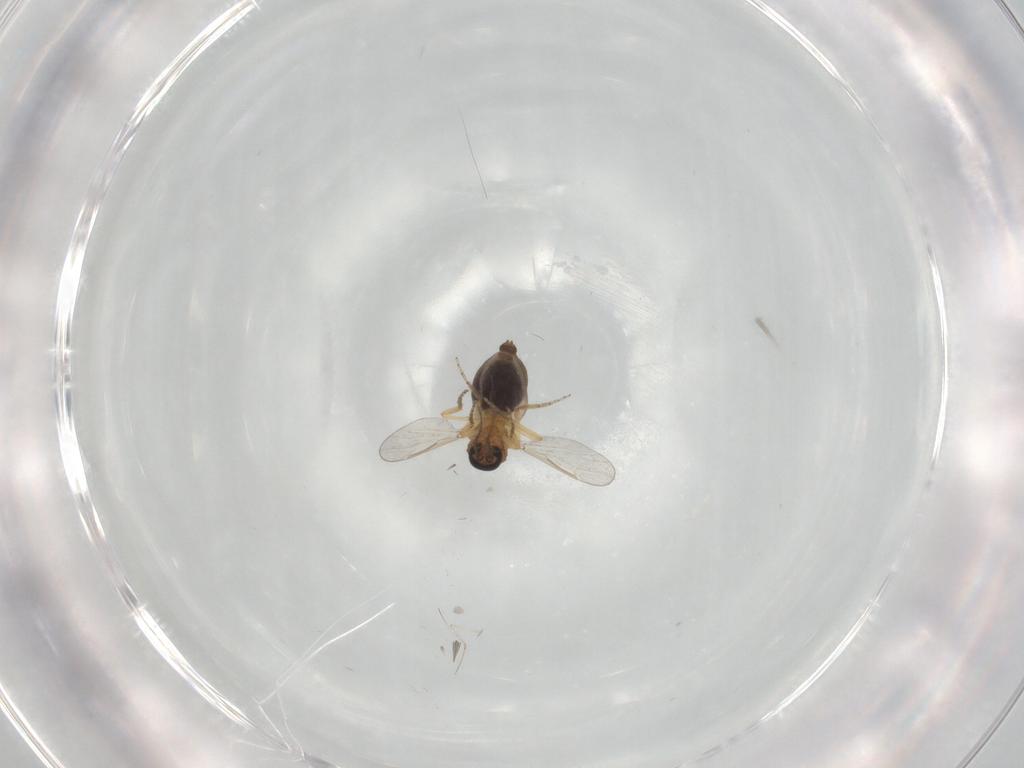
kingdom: Animalia
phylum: Arthropoda
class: Insecta
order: Diptera
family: Ceratopogonidae
